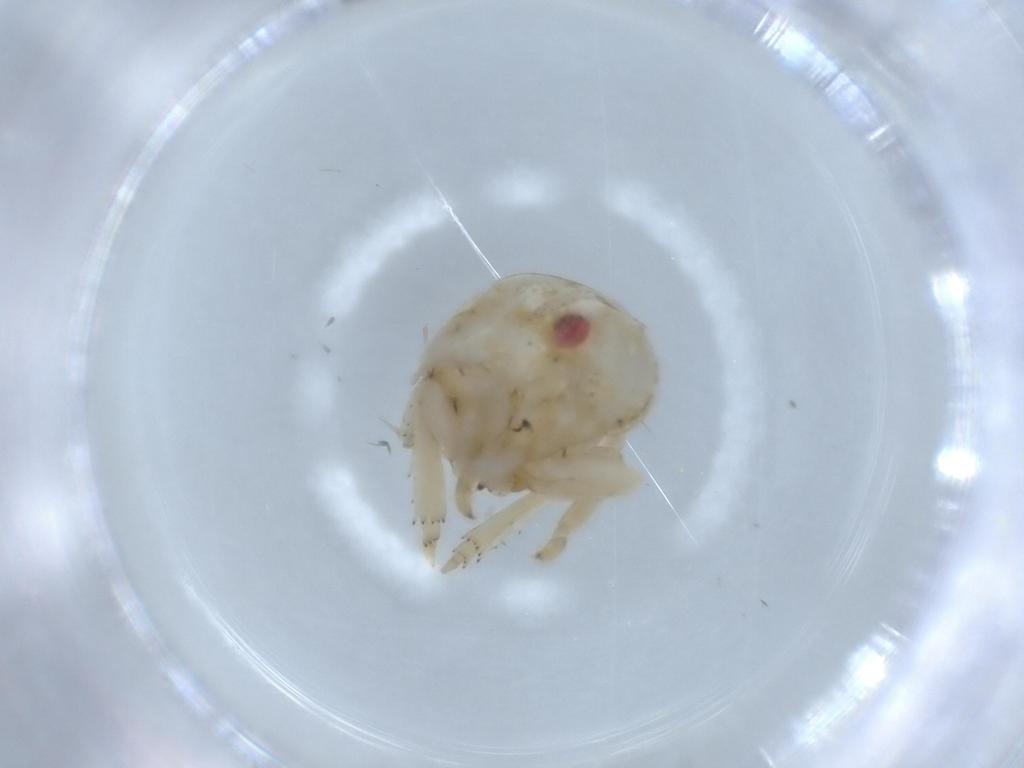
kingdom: Animalia
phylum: Arthropoda
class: Insecta
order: Hemiptera
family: Acanaloniidae
